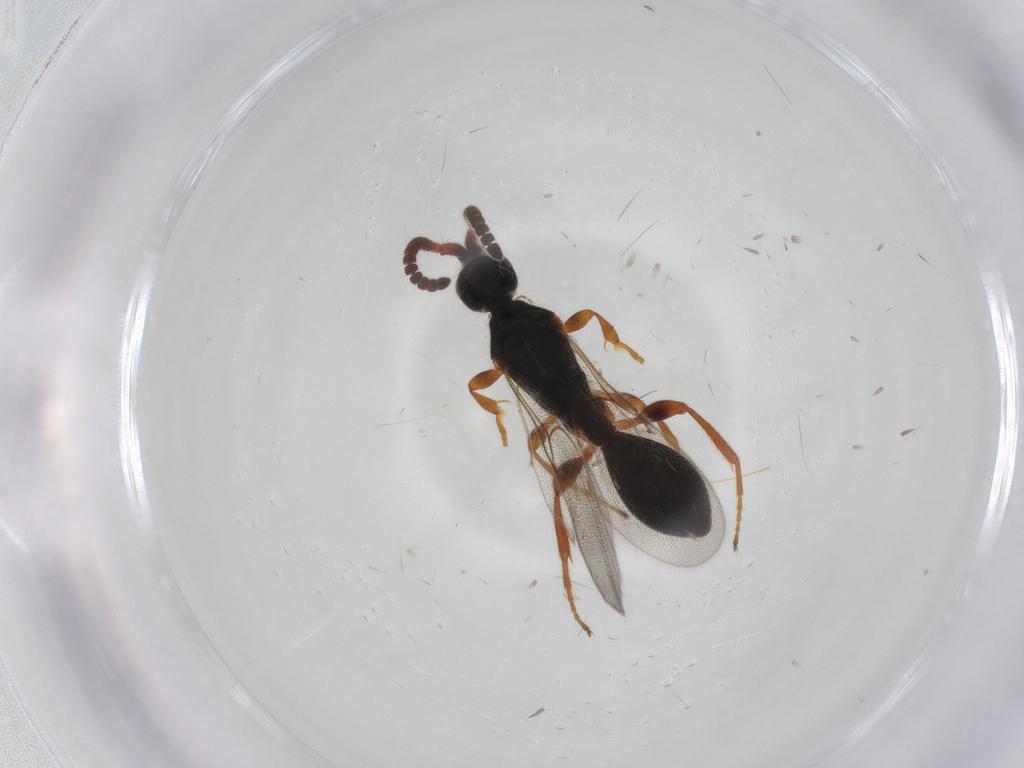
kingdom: Animalia
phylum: Arthropoda
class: Insecta
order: Hymenoptera
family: Diapriidae
